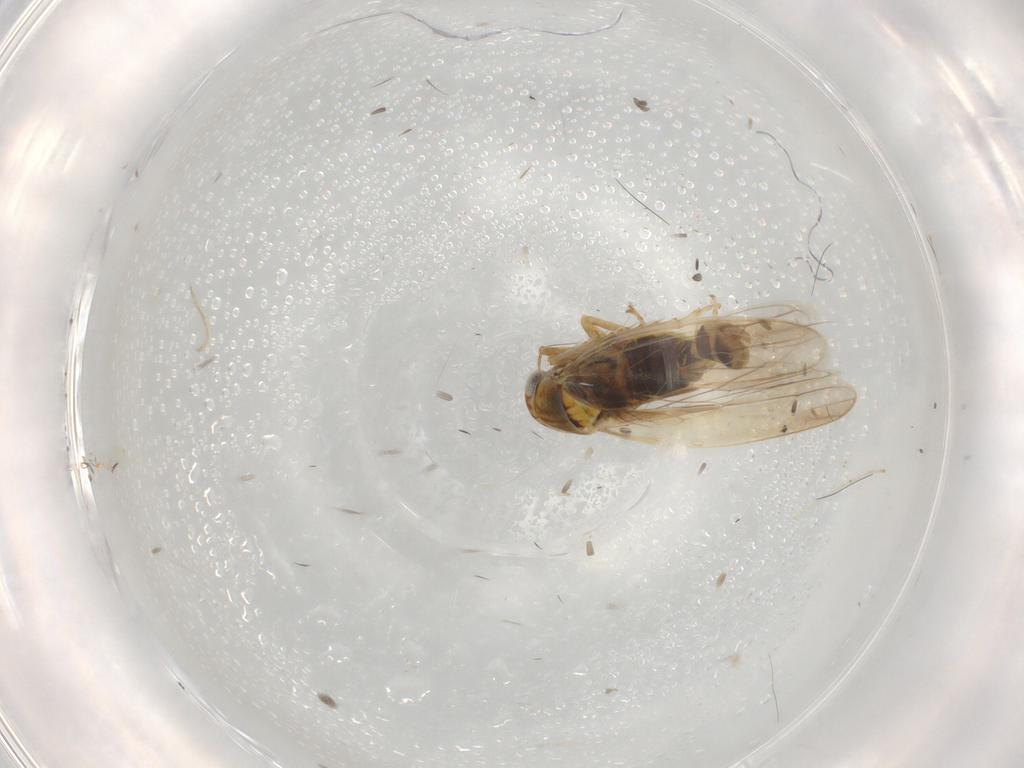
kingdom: Animalia
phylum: Arthropoda
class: Insecta
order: Hemiptera
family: Cicadellidae
